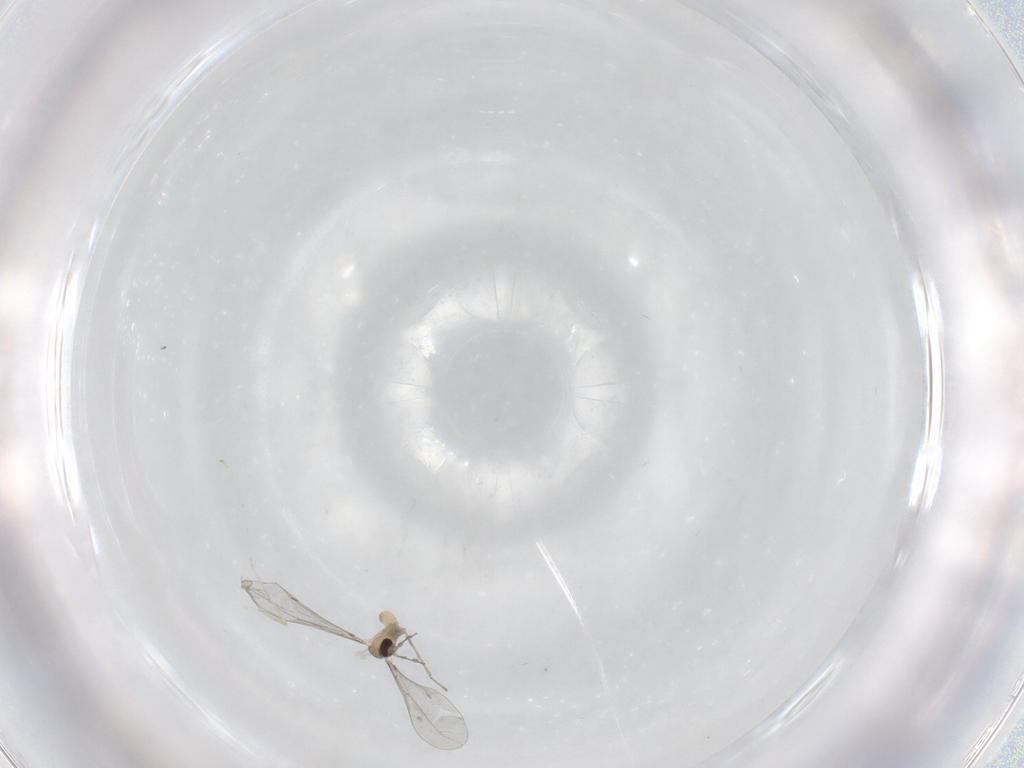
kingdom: Animalia
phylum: Arthropoda
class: Insecta
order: Diptera
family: Cecidomyiidae
